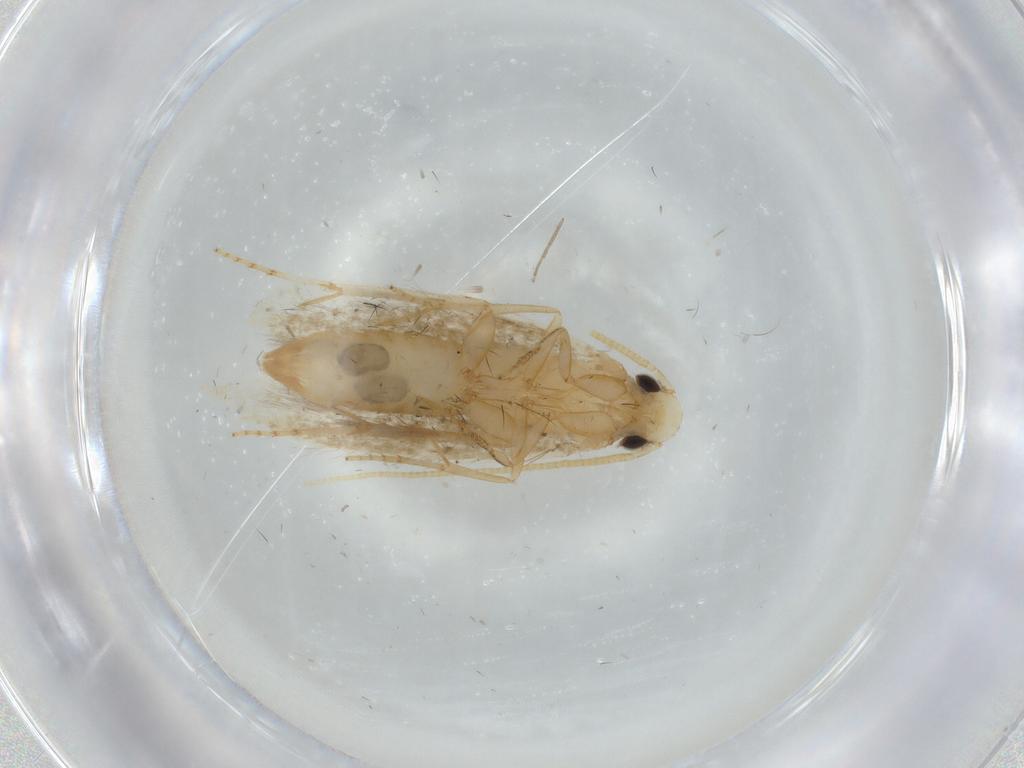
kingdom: Animalia
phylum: Arthropoda
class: Insecta
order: Lepidoptera
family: Tineidae
